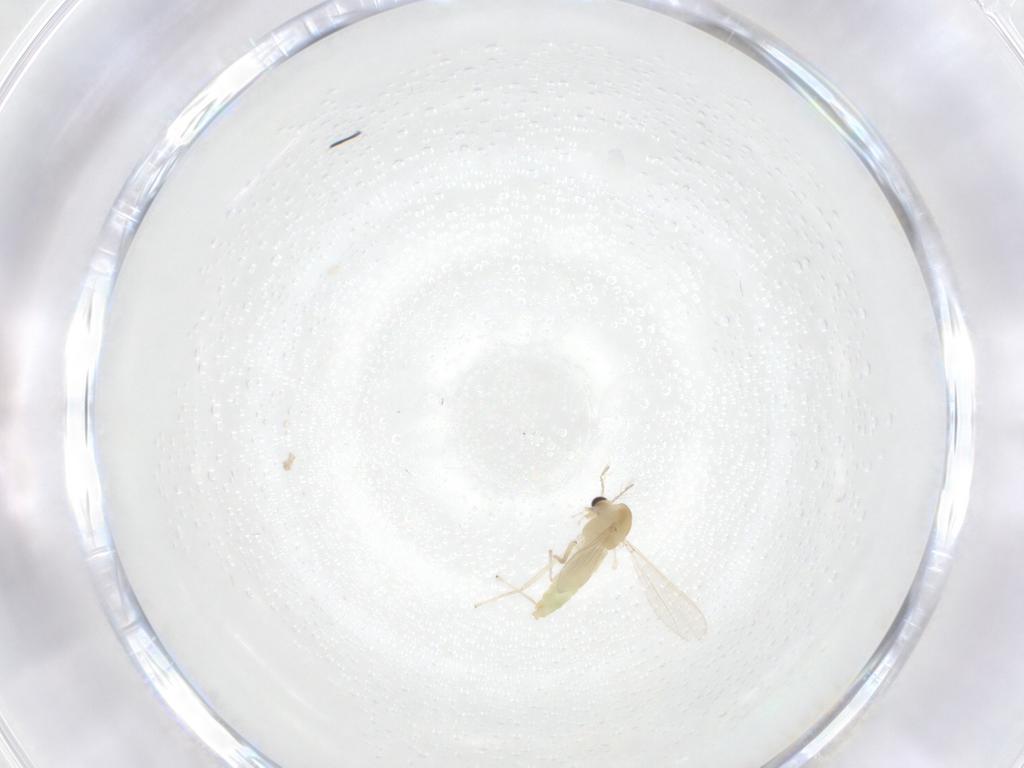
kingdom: Animalia
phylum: Arthropoda
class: Insecta
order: Diptera
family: Chironomidae
